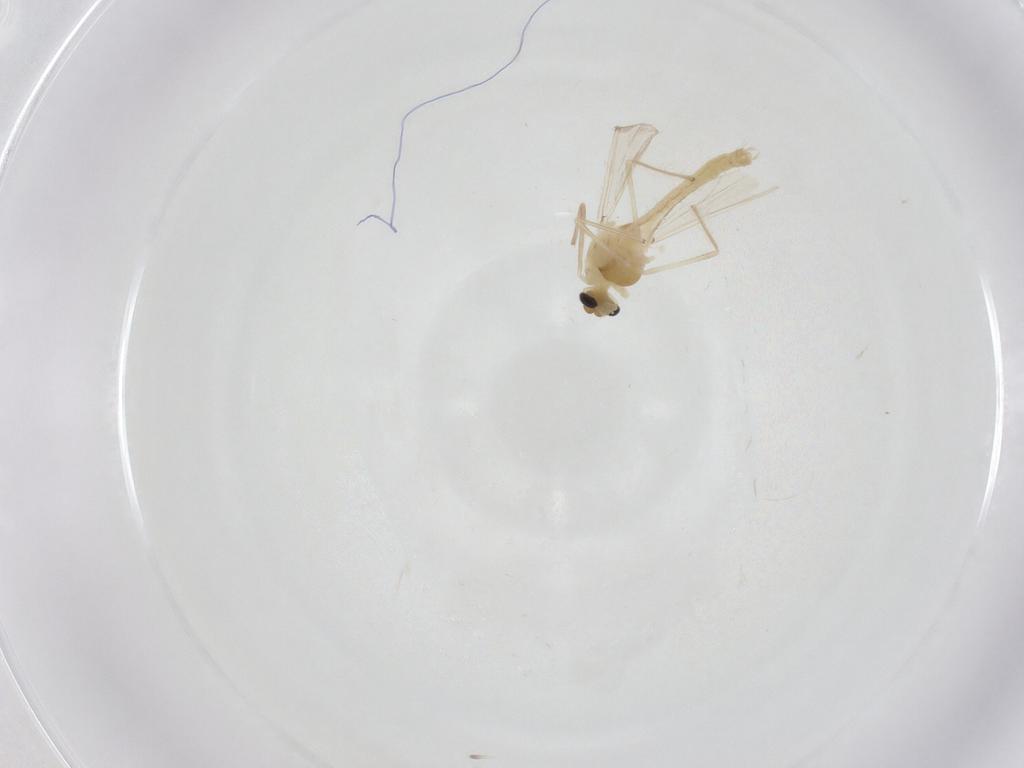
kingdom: Animalia
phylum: Arthropoda
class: Insecta
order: Diptera
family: Chironomidae
